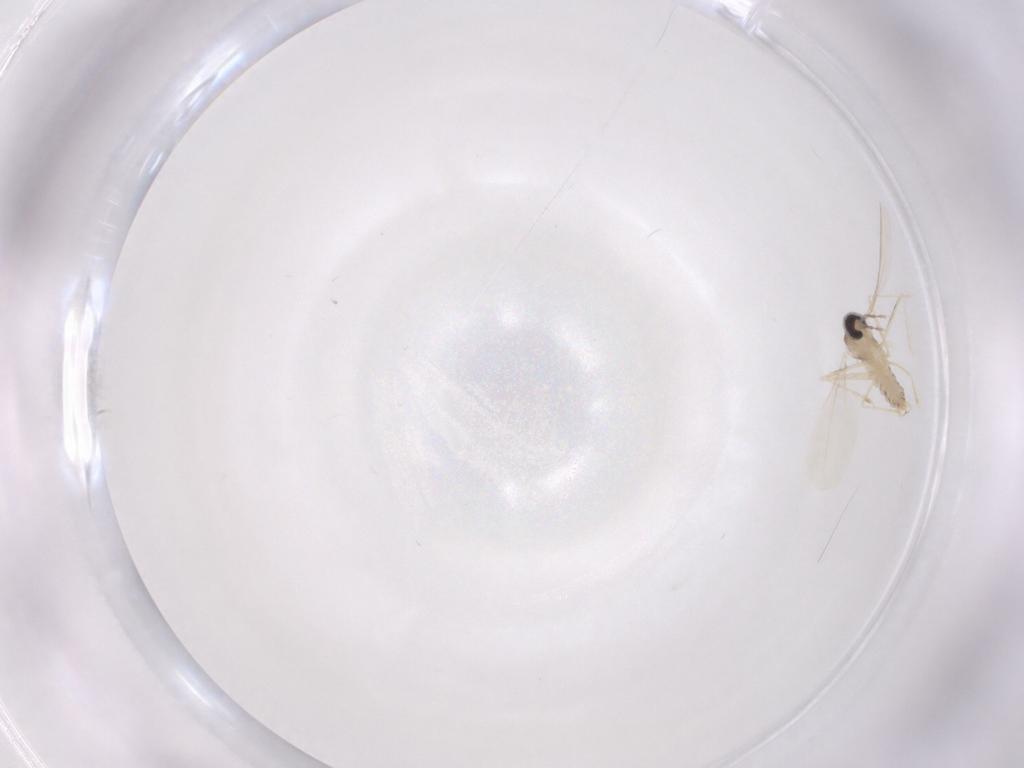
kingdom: Animalia
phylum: Arthropoda
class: Insecta
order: Diptera
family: Cecidomyiidae
